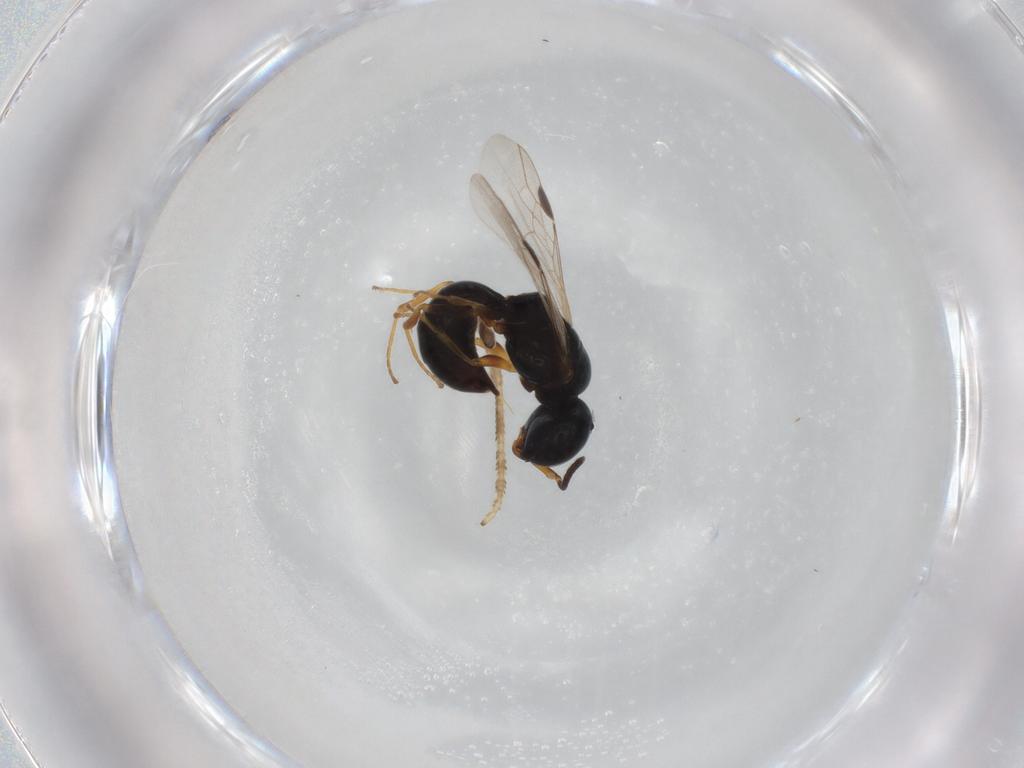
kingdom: Animalia
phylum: Arthropoda
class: Insecta
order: Hymenoptera
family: Pemphredonidae
